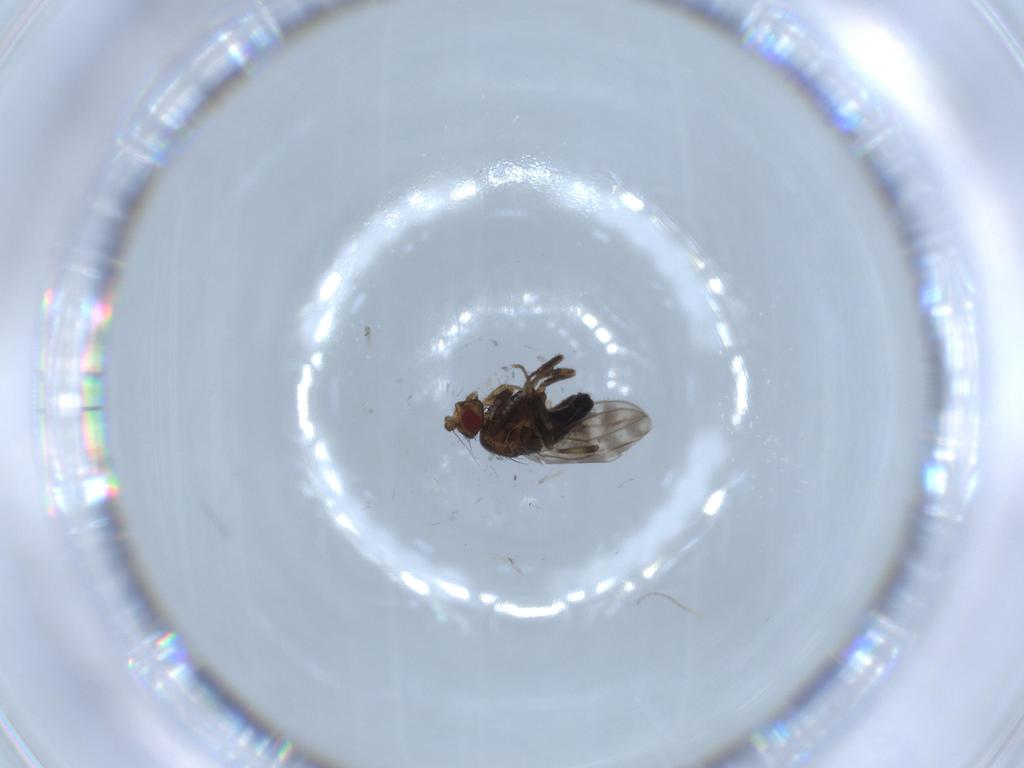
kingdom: Animalia
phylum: Arthropoda
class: Insecta
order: Diptera
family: Sphaeroceridae
